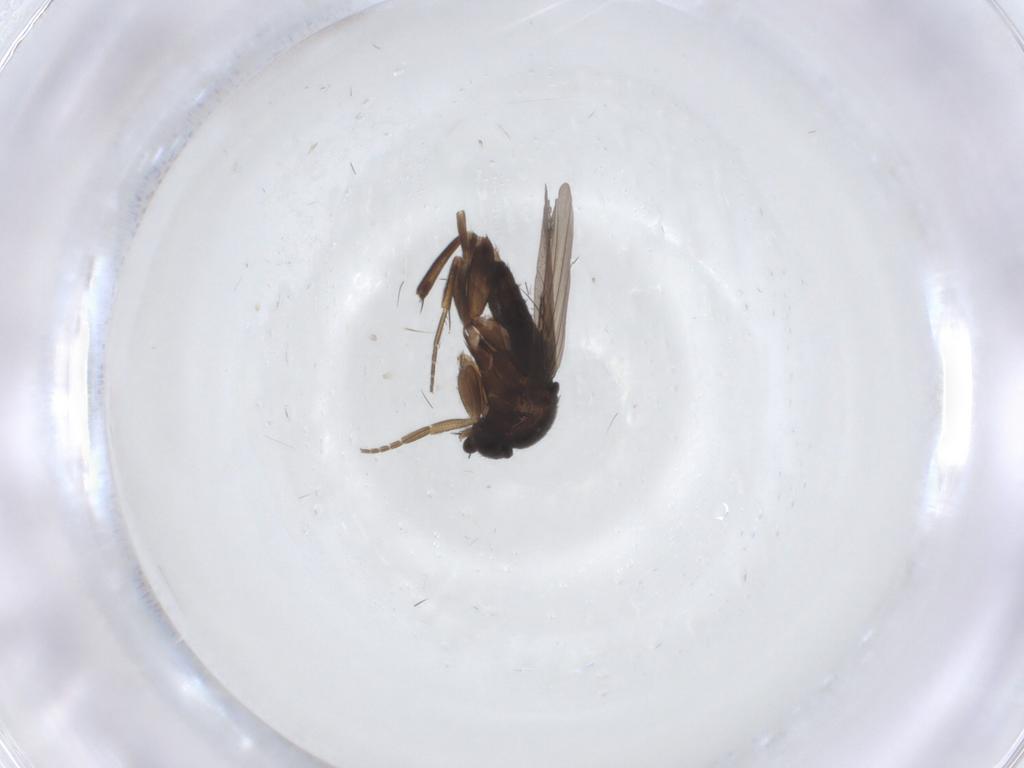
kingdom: Animalia
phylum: Arthropoda
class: Insecta
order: Diptera
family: Phoridae
